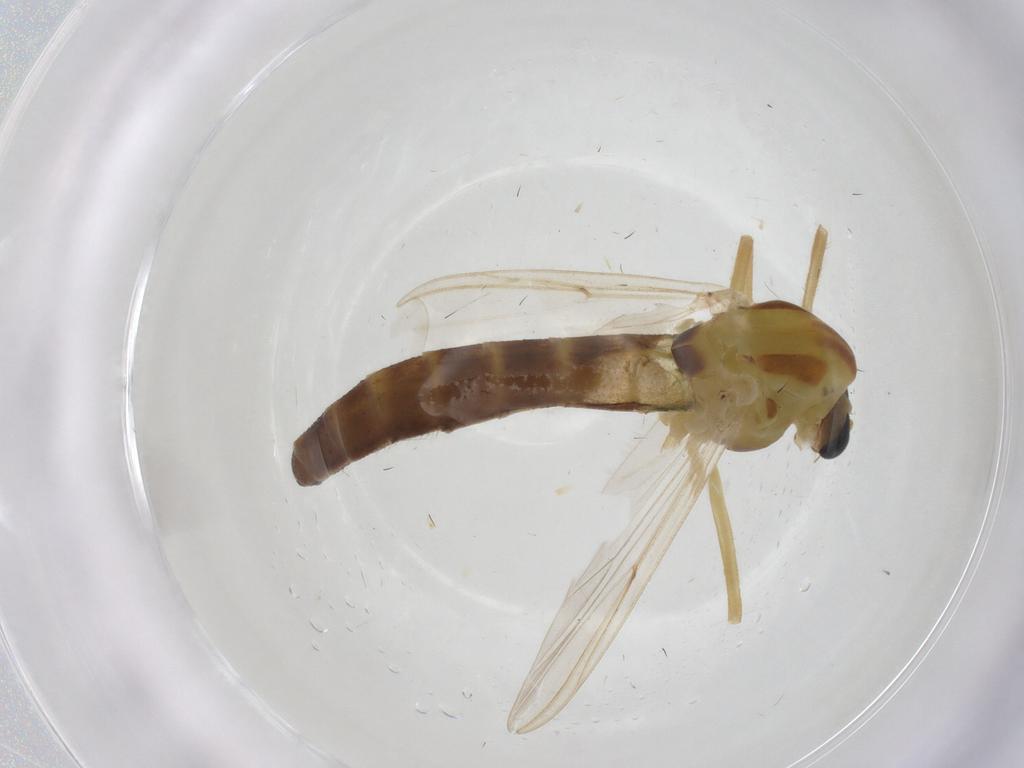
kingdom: Animalia
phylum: Arthropoda
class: Insecta
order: Diptera
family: Chironomidae
